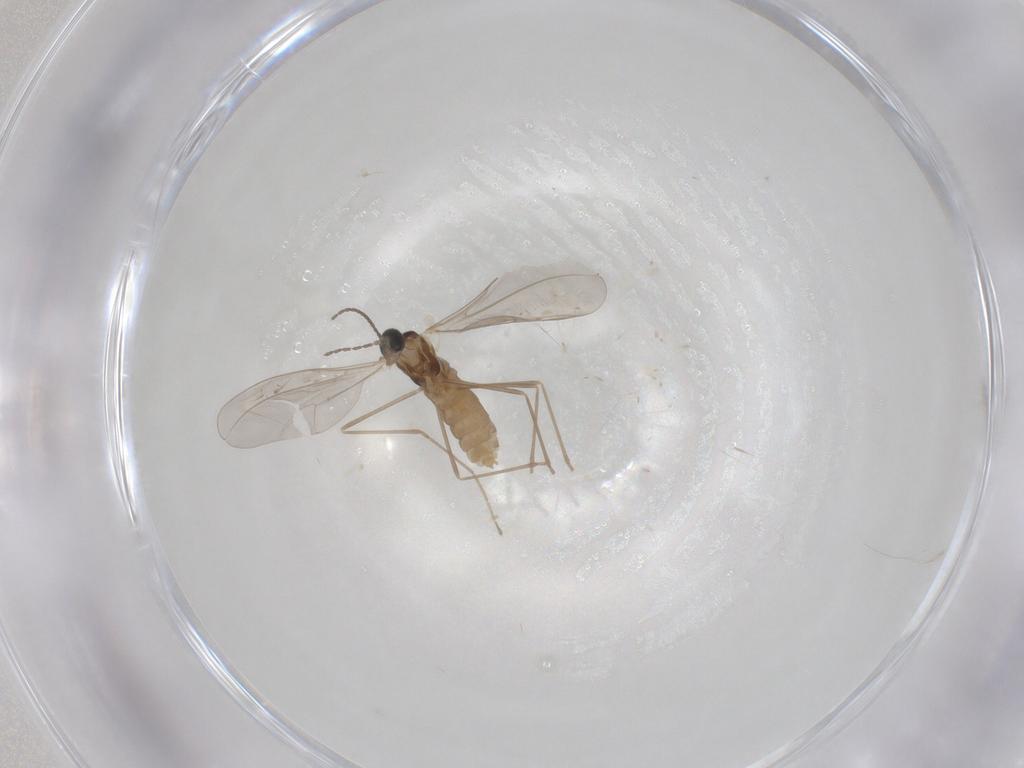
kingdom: Animalia
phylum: Arthropoda
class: Insecta
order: Diptera
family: Cecidomyiidae
